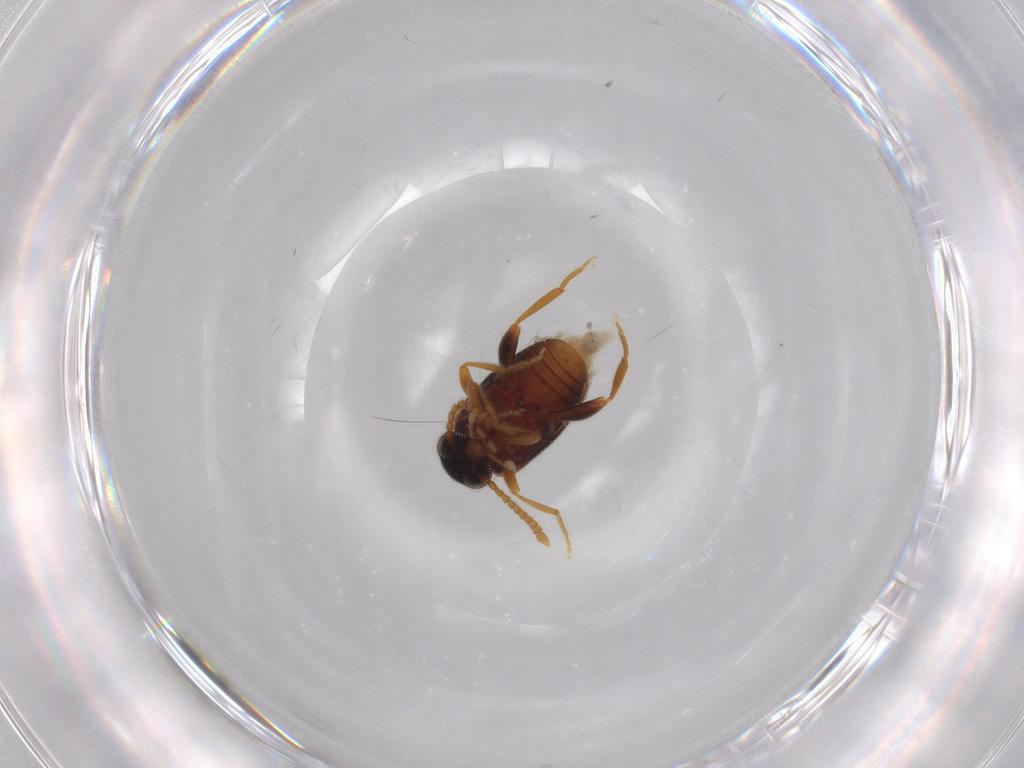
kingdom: Animalia
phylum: Arthropoda
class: Insecta
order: Coleoptera
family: Aderidae
